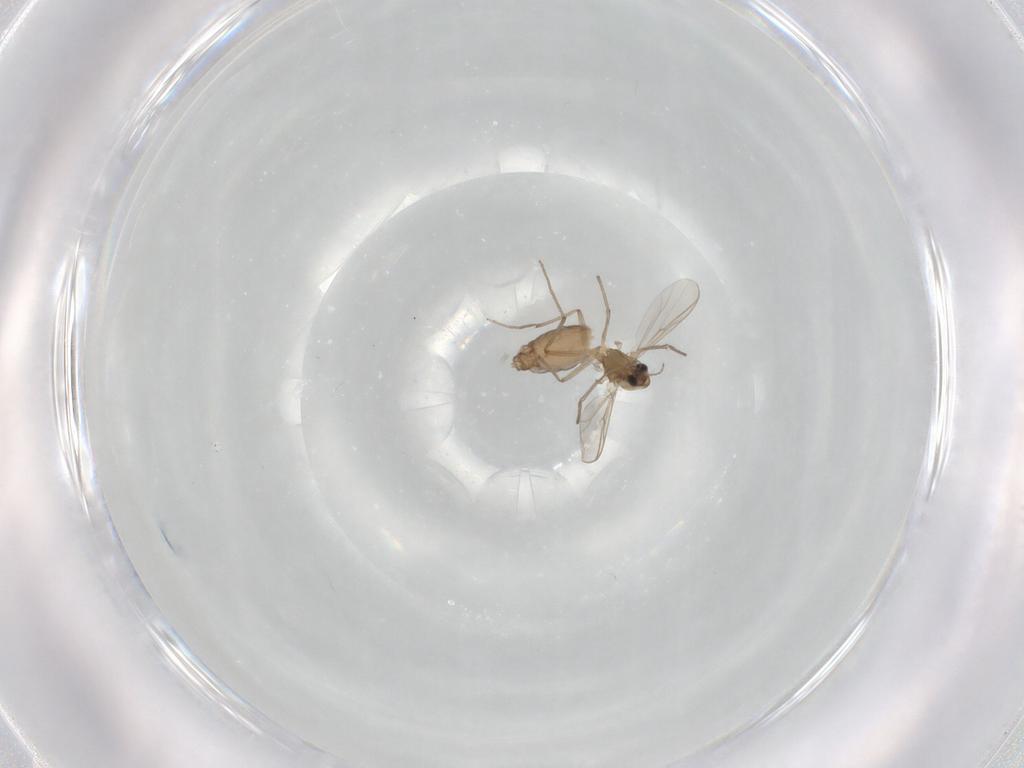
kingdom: Animalia
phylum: Arthropoda
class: Insecta
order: Diptera
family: Chironomidae
